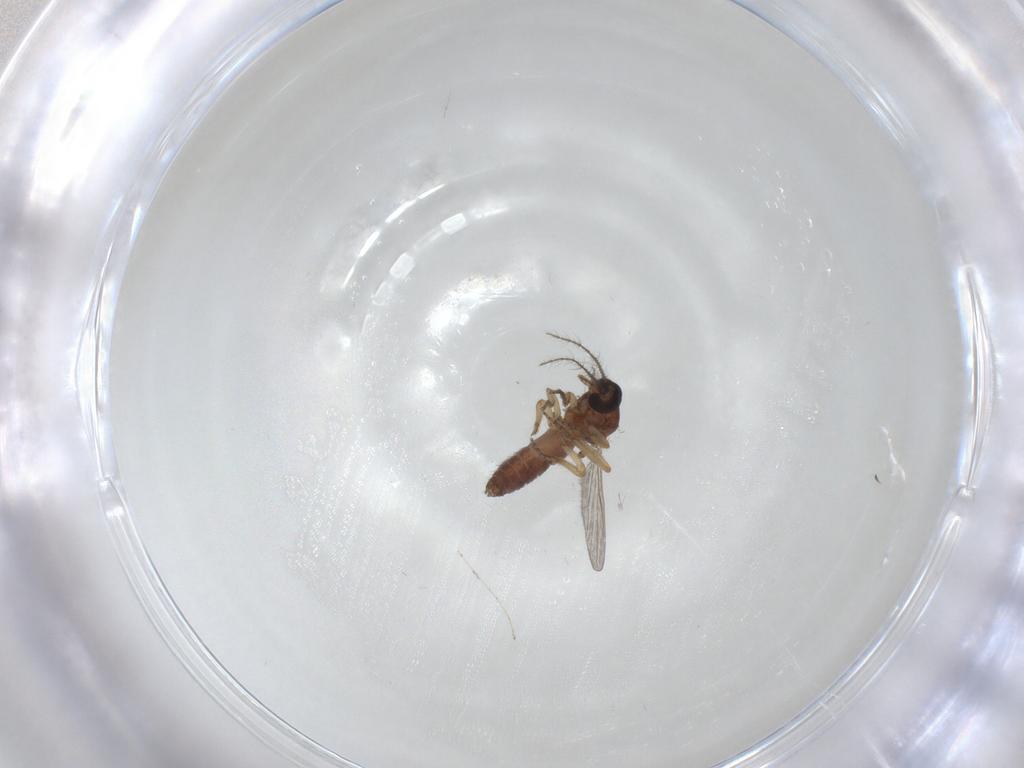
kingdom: Animalia
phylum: Arthropoda
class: Insecta
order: Diptera
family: Ceratopogonidae
